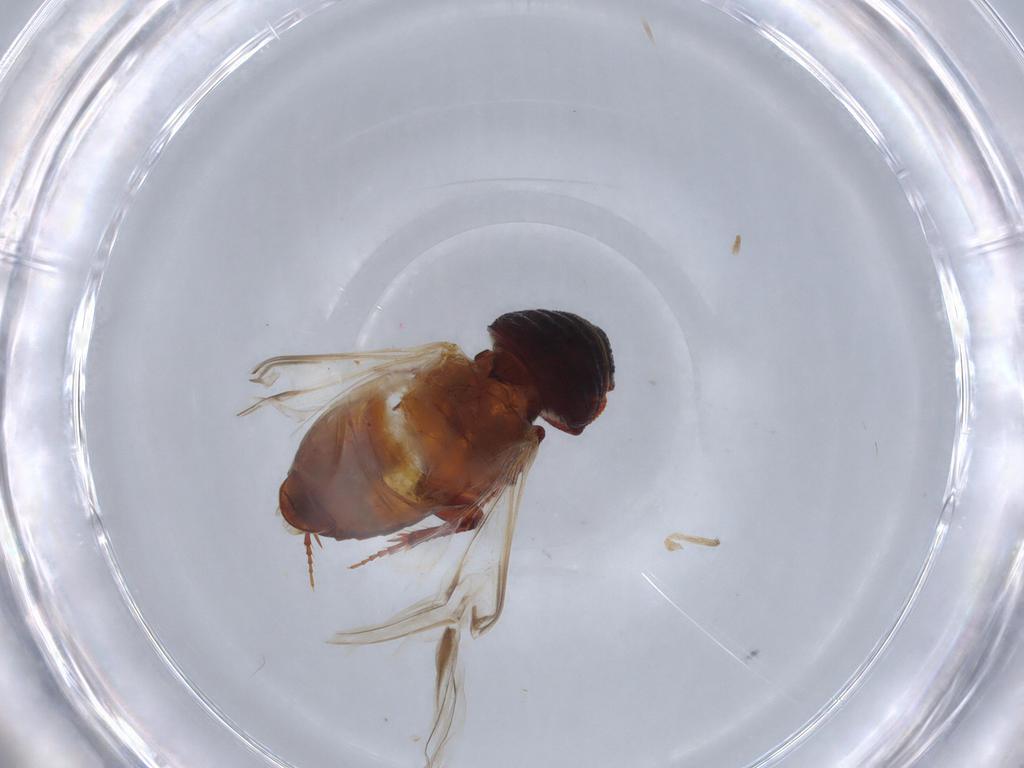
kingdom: Animalia
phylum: Arthropoda
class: Insecta
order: Coleoptera
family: Scarabaeidae
